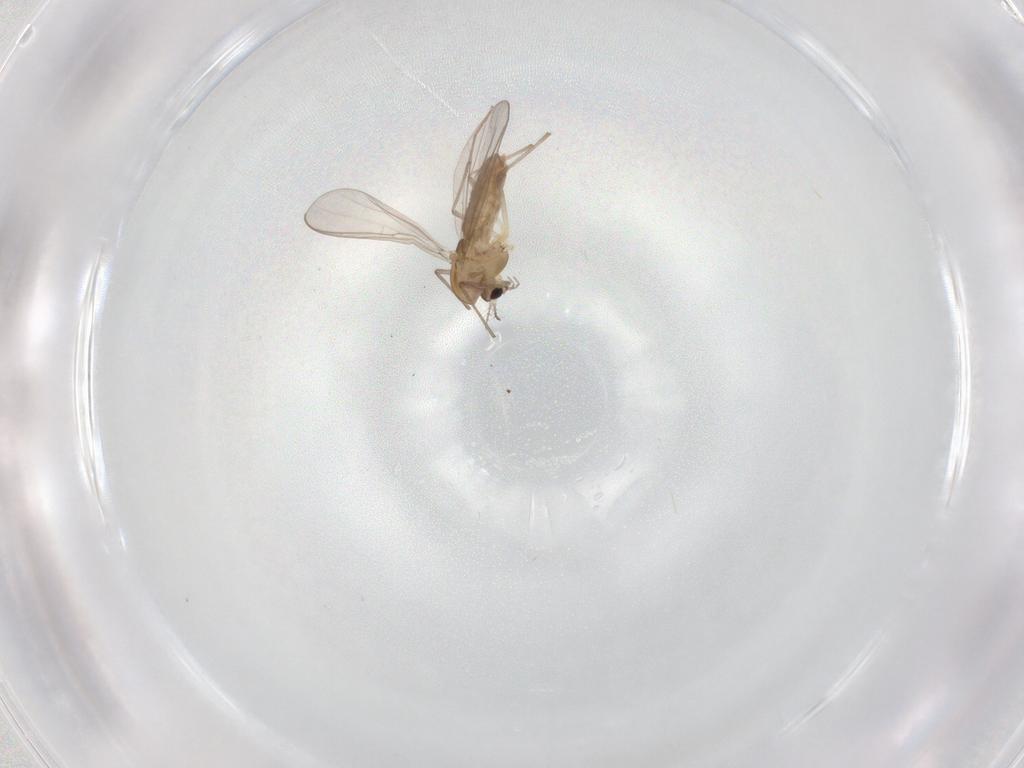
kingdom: Animalia
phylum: Arthropoda
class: Insecta
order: Diptera
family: Chironomidae
